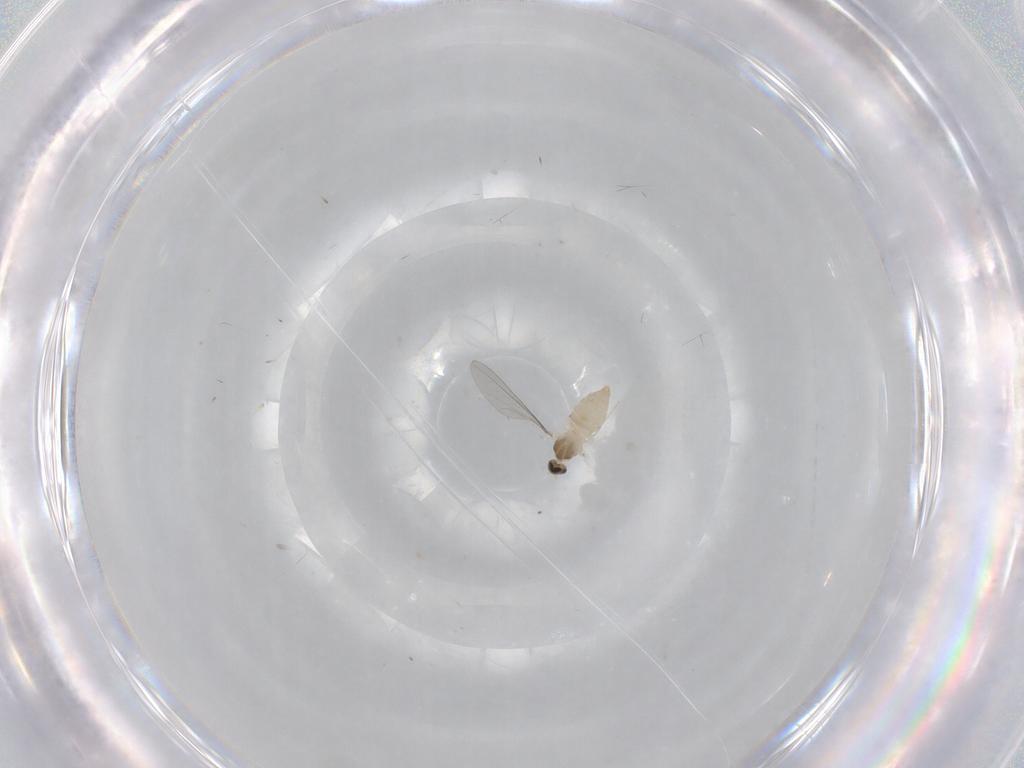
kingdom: Animalia
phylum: Arthropoda
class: Insecta
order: Diptera
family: Cecidomyiidae
